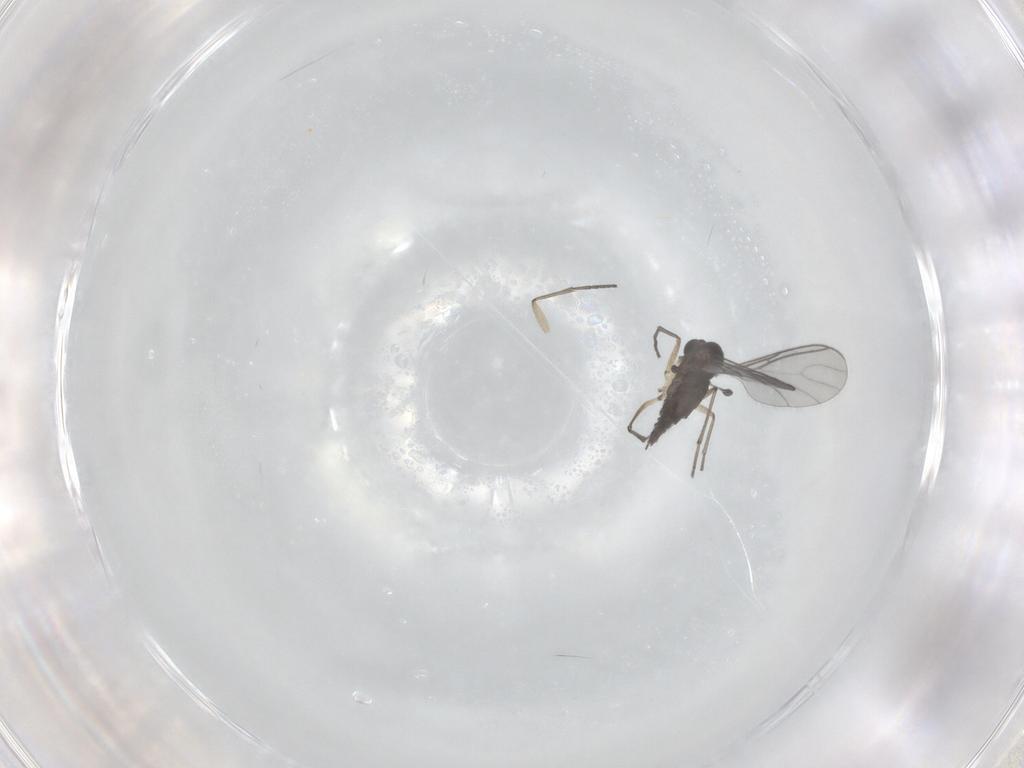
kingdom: Animalia
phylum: Arthropoda
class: Insecta
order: Diptera
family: Sciaridae
